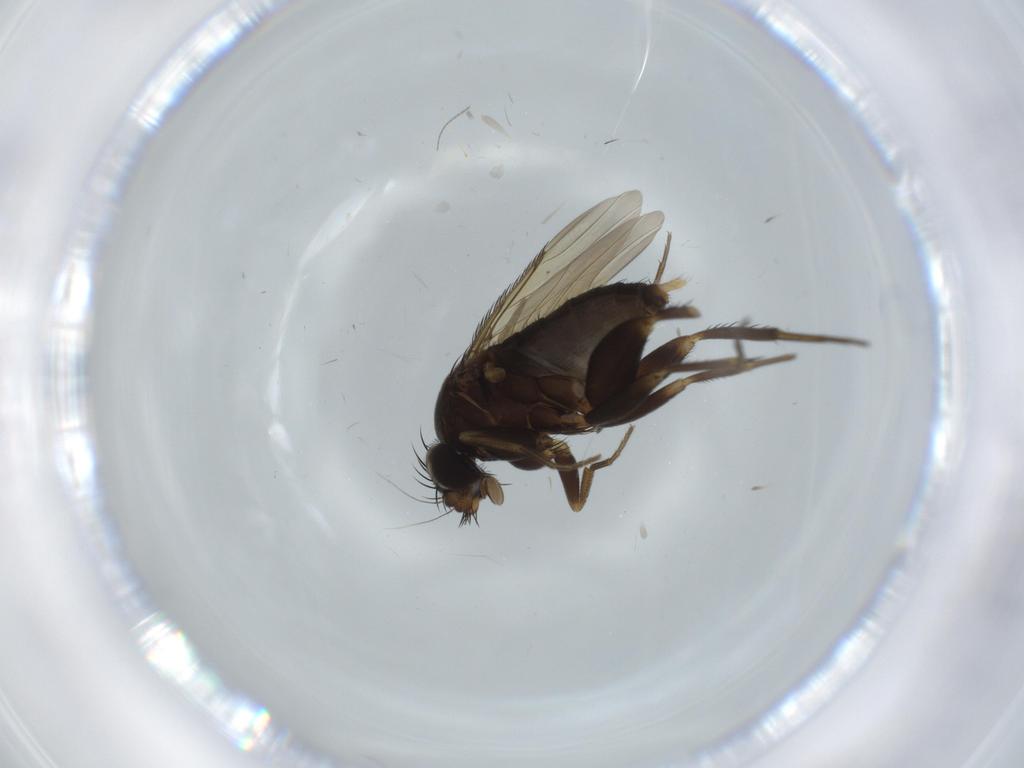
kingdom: Animalia
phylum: Arthropoda
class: Insecta
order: Diptera
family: Phoridae
